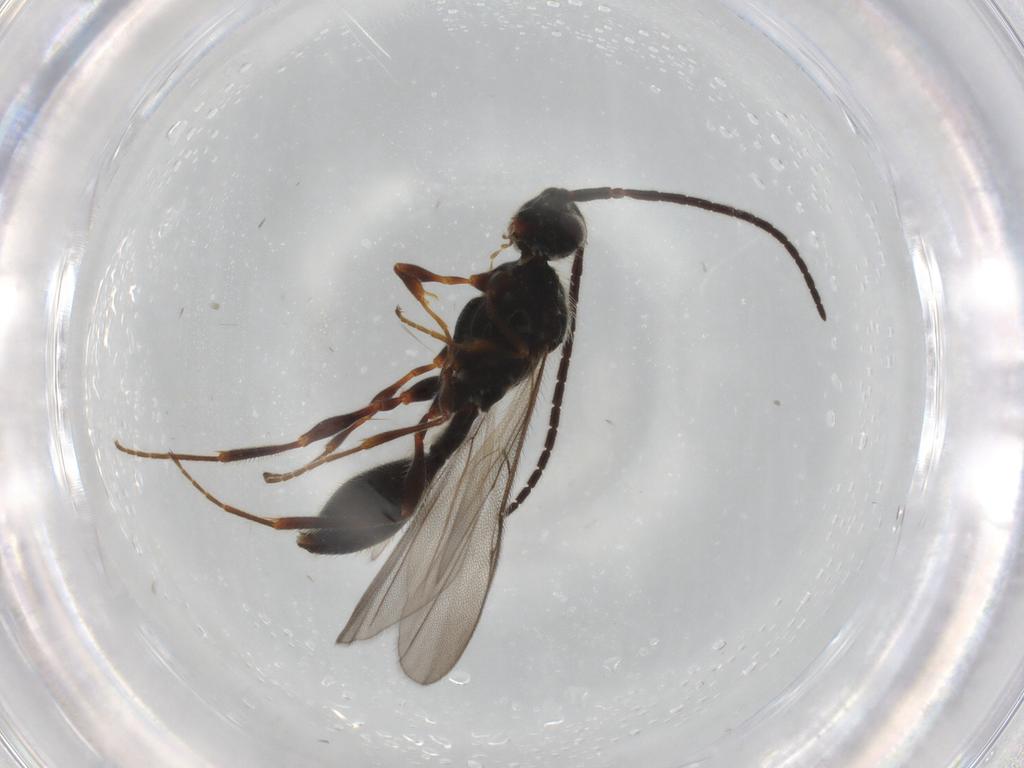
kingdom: Animalia
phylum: Arthropoda
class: Insecta
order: Hymenoptera
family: Diapriidae
